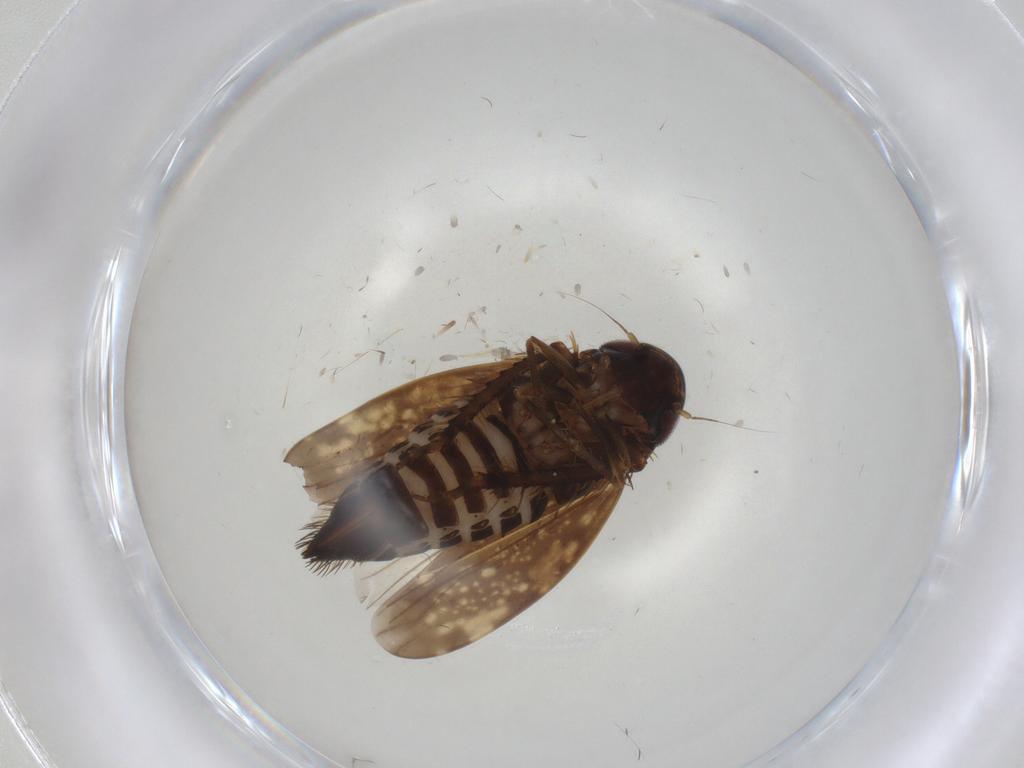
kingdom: Animalia
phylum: Arthropoda
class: Insecta
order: Hemiptera
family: Cicadellidae
